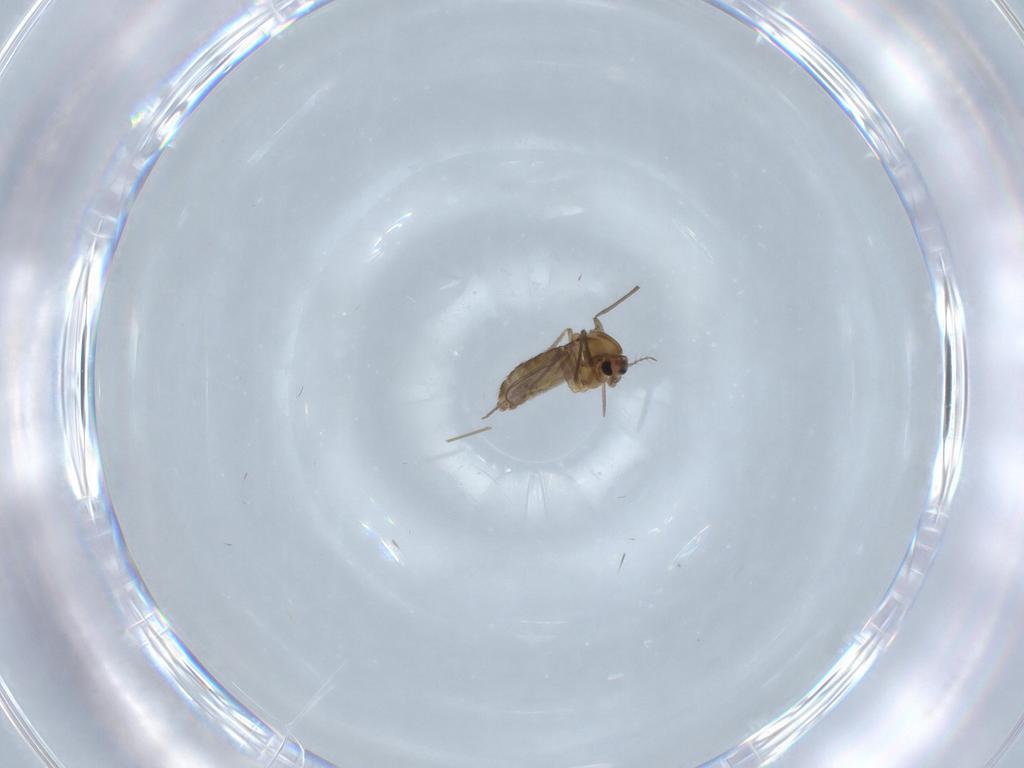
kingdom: Animalia
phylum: Arthropoda
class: Insecta
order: Diptera
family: Chironomidae
